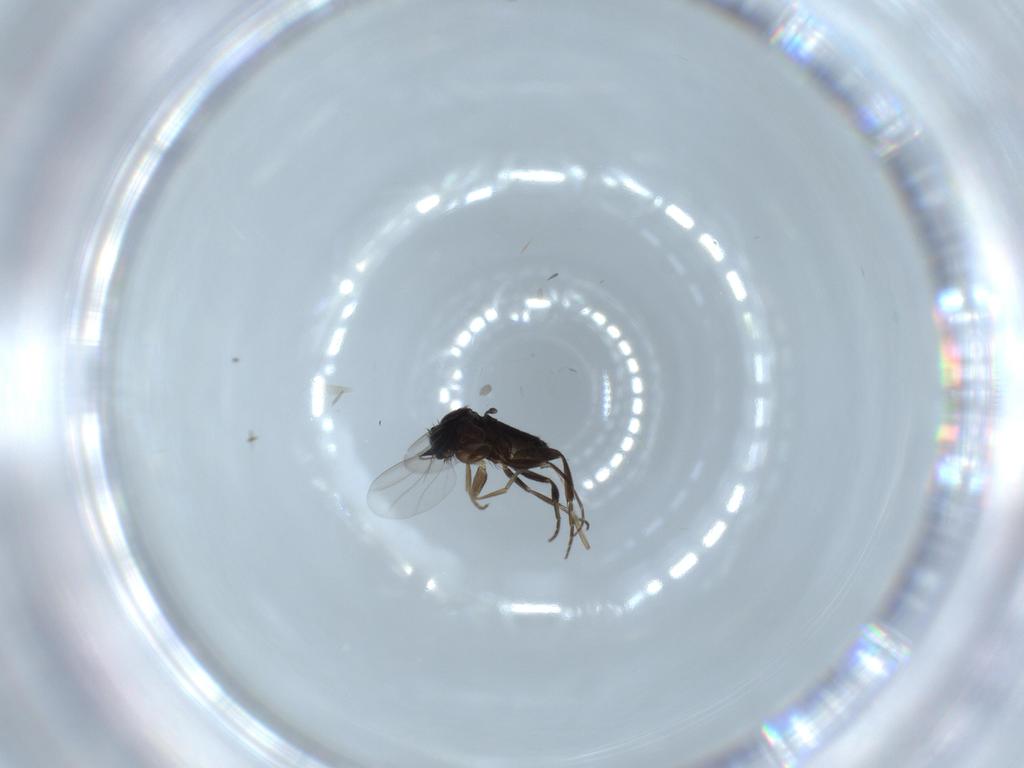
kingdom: Animalia
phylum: Arthropoda
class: Insecta
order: Diptera
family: Phoridae
